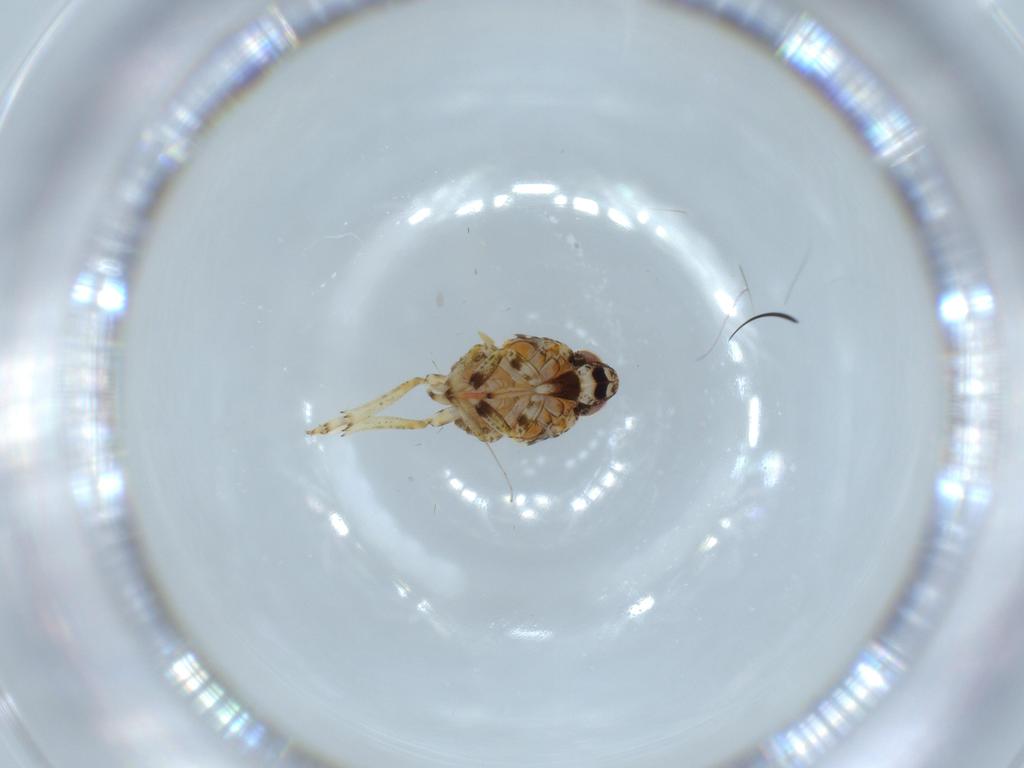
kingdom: Animalia
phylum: Arthropoda
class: Insecta
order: Hemiptera
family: Issidae
